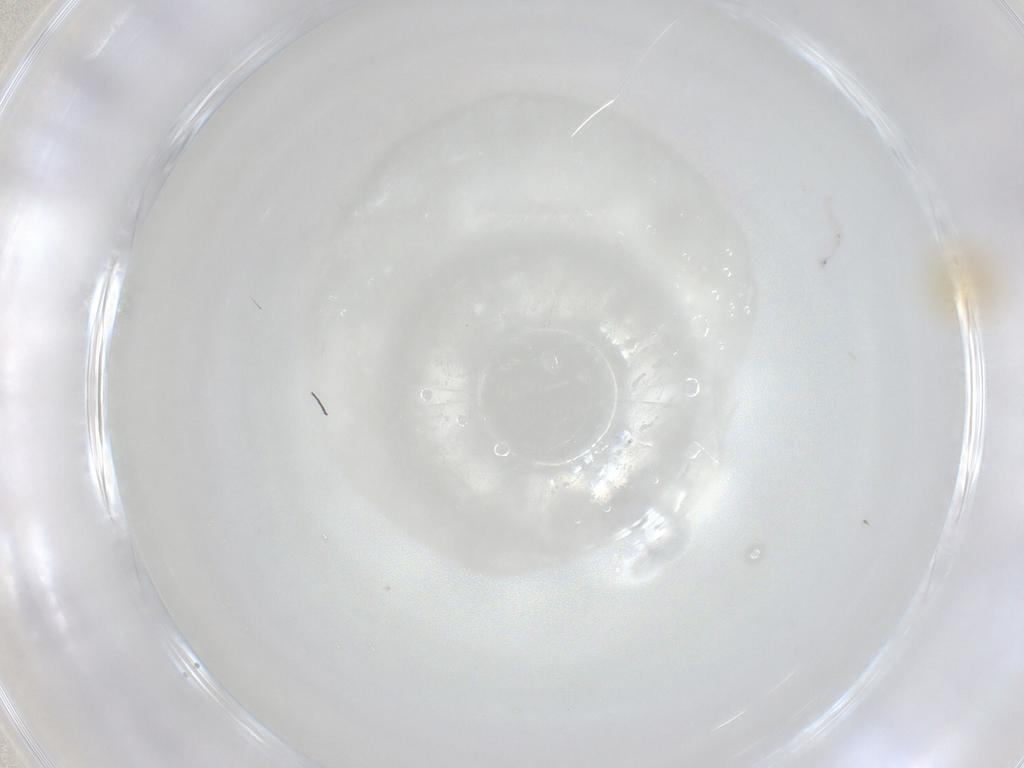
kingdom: Animalia
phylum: Arthropoda
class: Insecta
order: Hemiptera
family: Aleyrodidae
